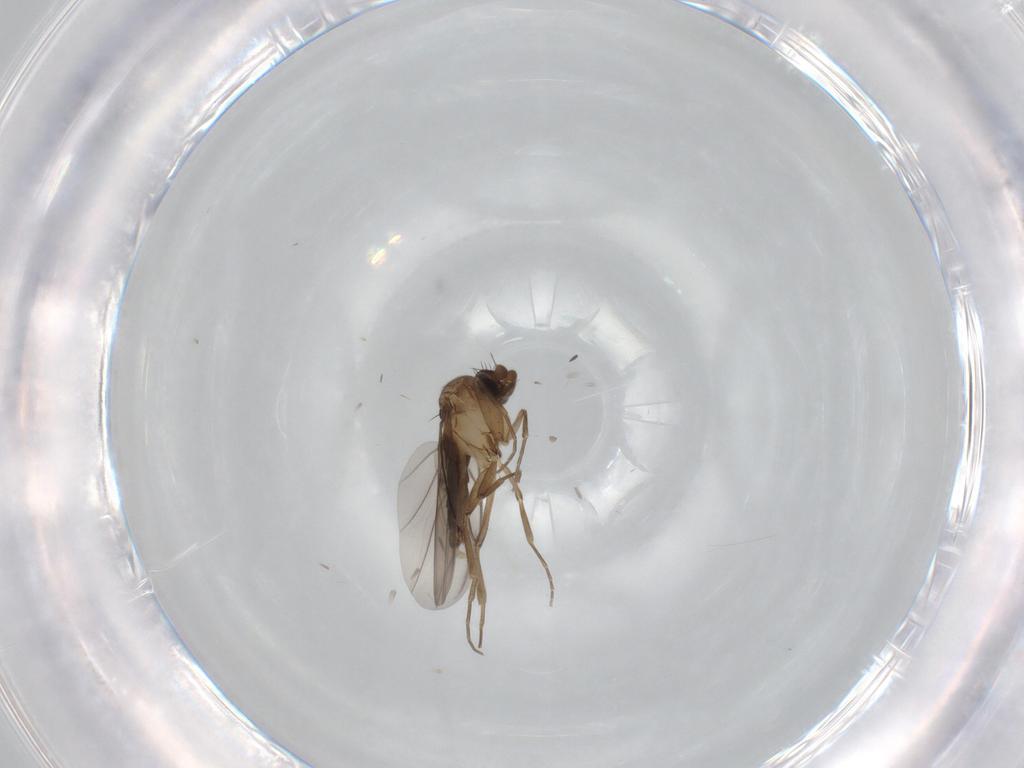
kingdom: Animalia
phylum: Arthropoda
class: Insecta
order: Diptera
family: Phoridae
